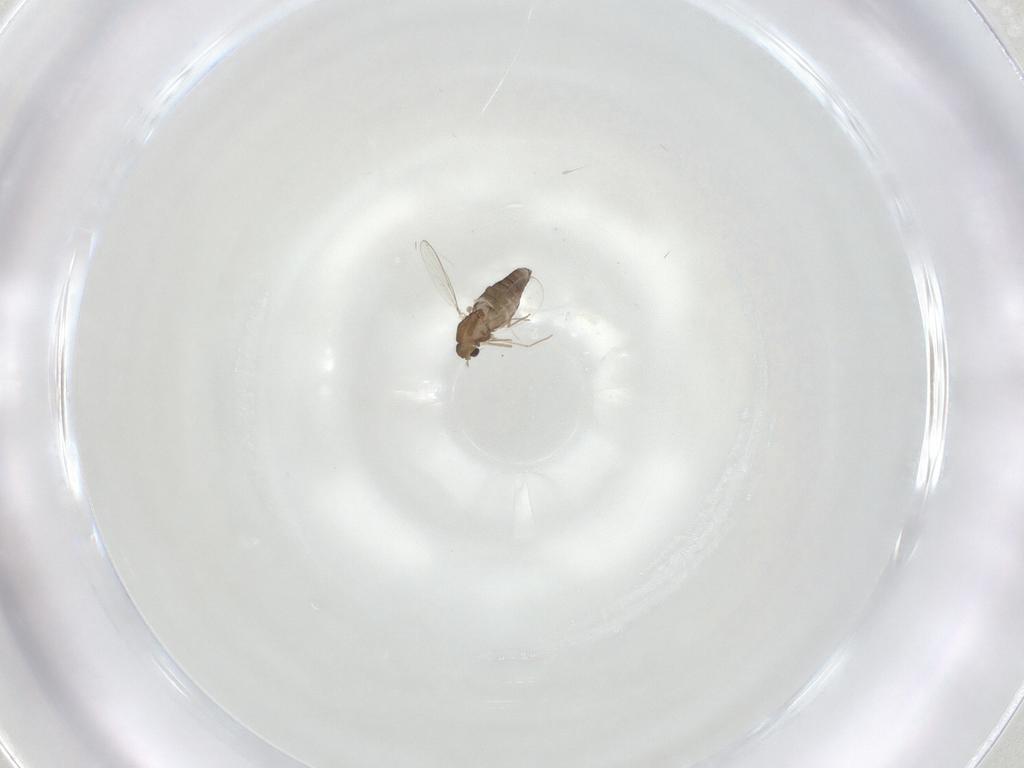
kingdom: Animalia
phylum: Arthropoda
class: Insecta
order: Diptera
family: Chironomidae
